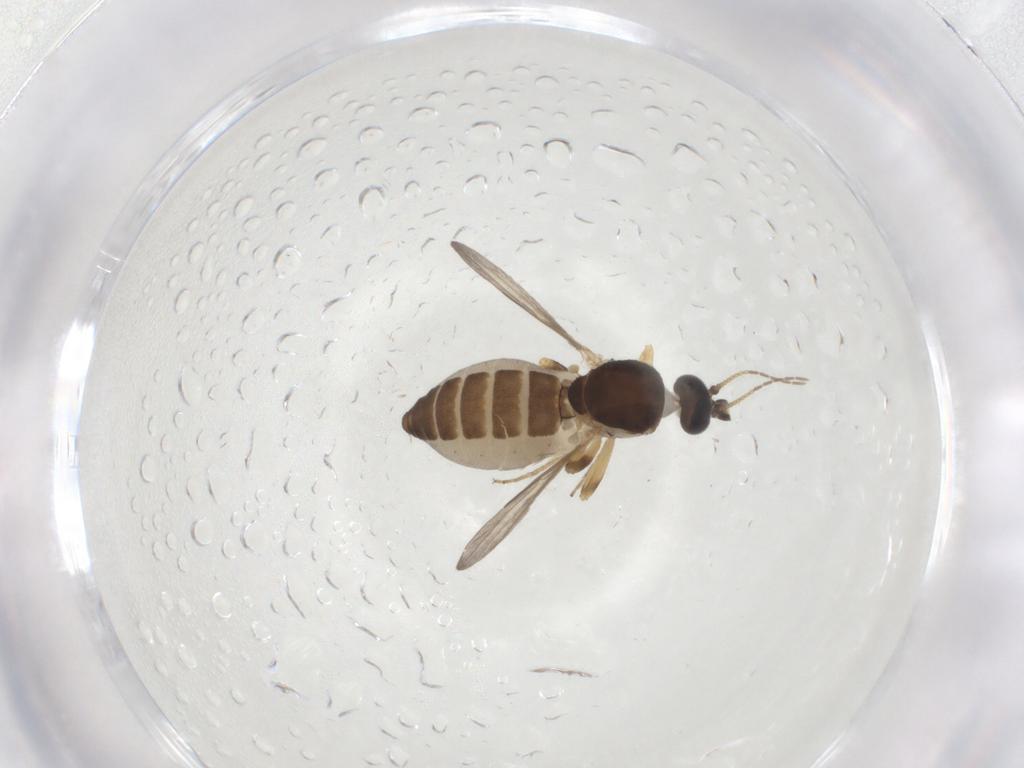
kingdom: Animalia
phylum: Arthropoda
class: Insecta
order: Diptera
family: Ceratopogonidae
